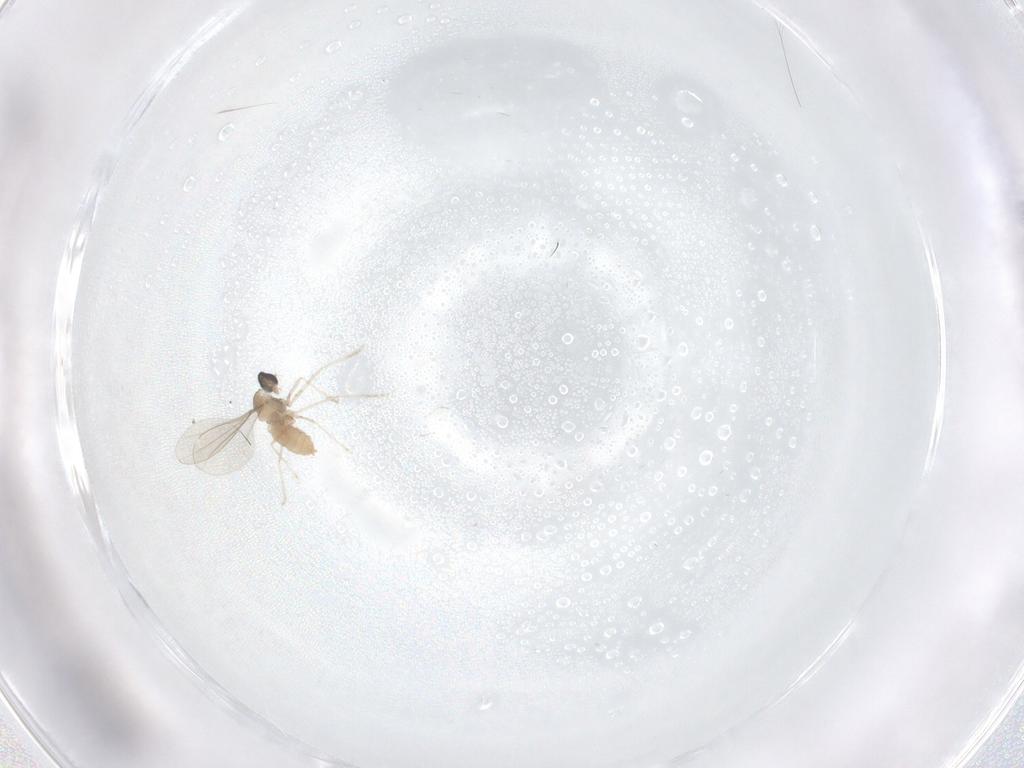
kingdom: Animalia
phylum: Arthropoda
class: Insecta
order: Diptera
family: Cecidomyiidae
